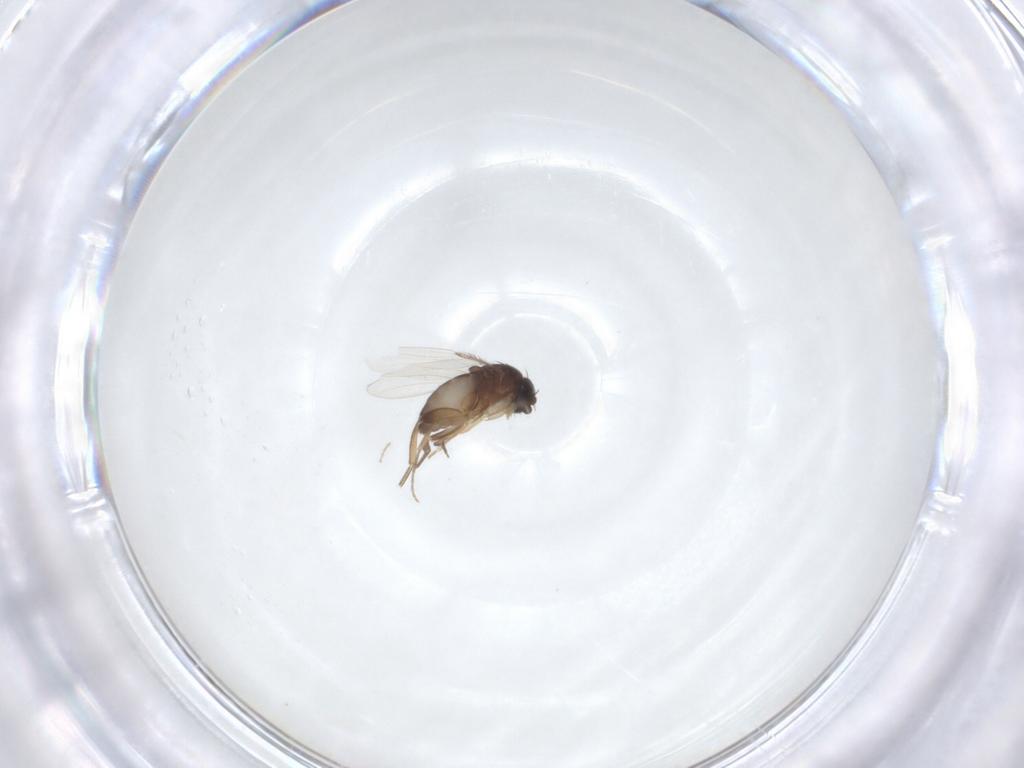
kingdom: Animalia
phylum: Arthropoda
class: Insecta
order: Diptera
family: Phoridae
